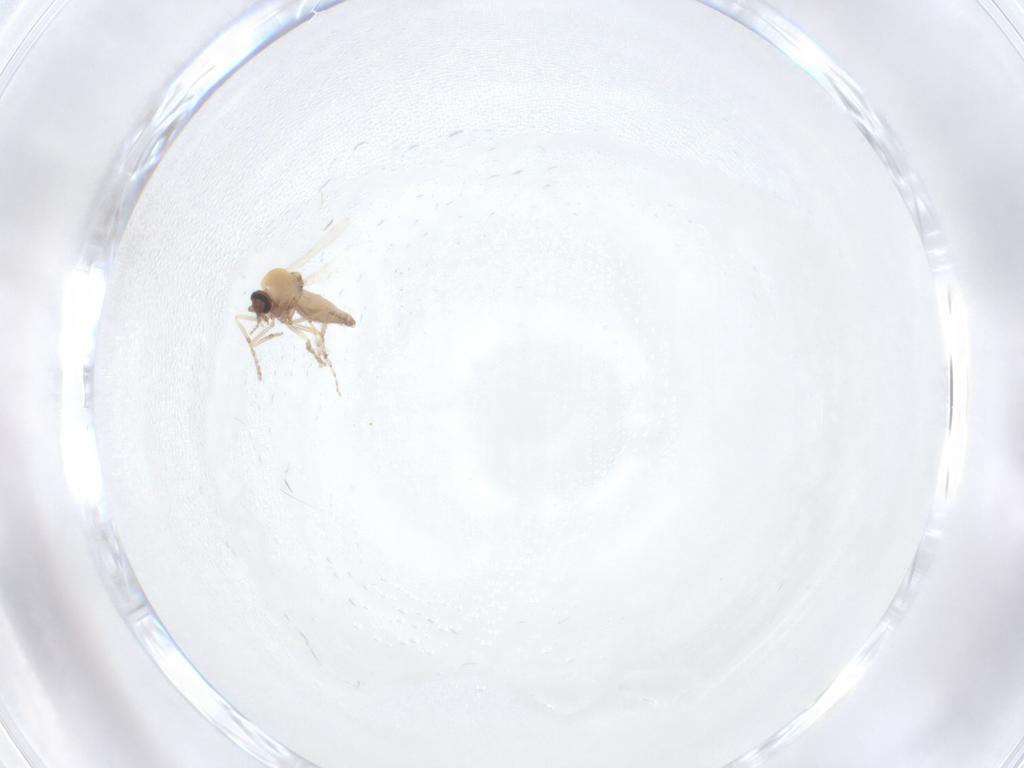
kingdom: Animalia
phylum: Arthropoda
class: Insecta
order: Diptera
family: Ceratopogonidae
